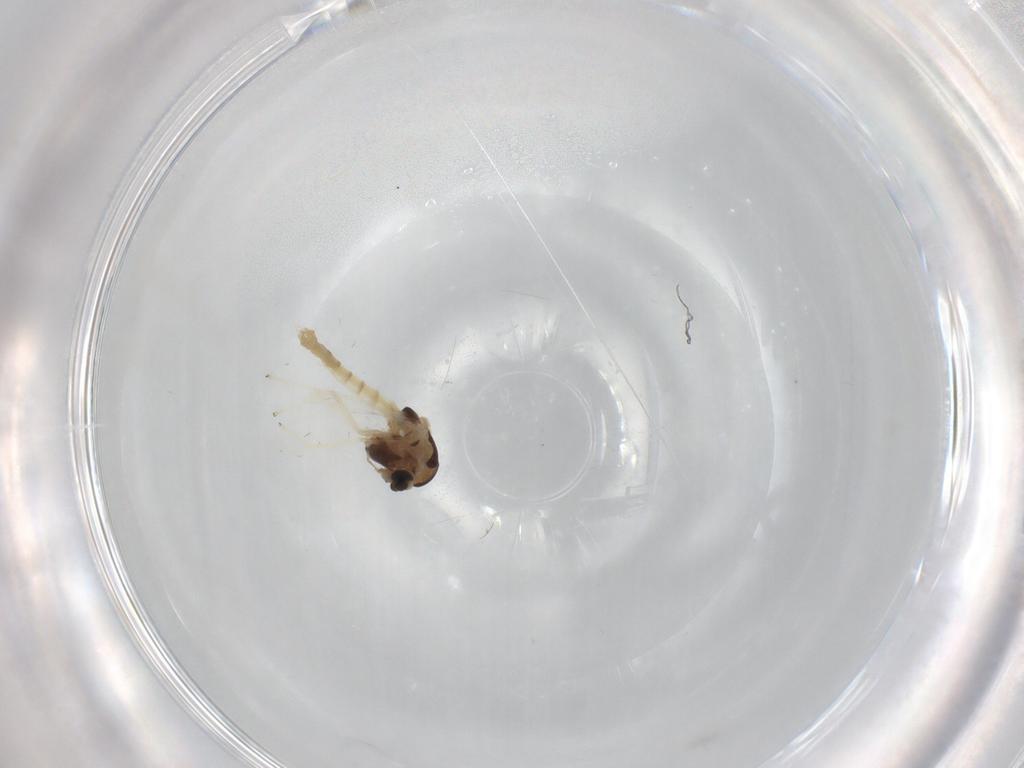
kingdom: Animalia
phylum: Arthropoda
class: Insecta
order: Diptera
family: Chironomidae
